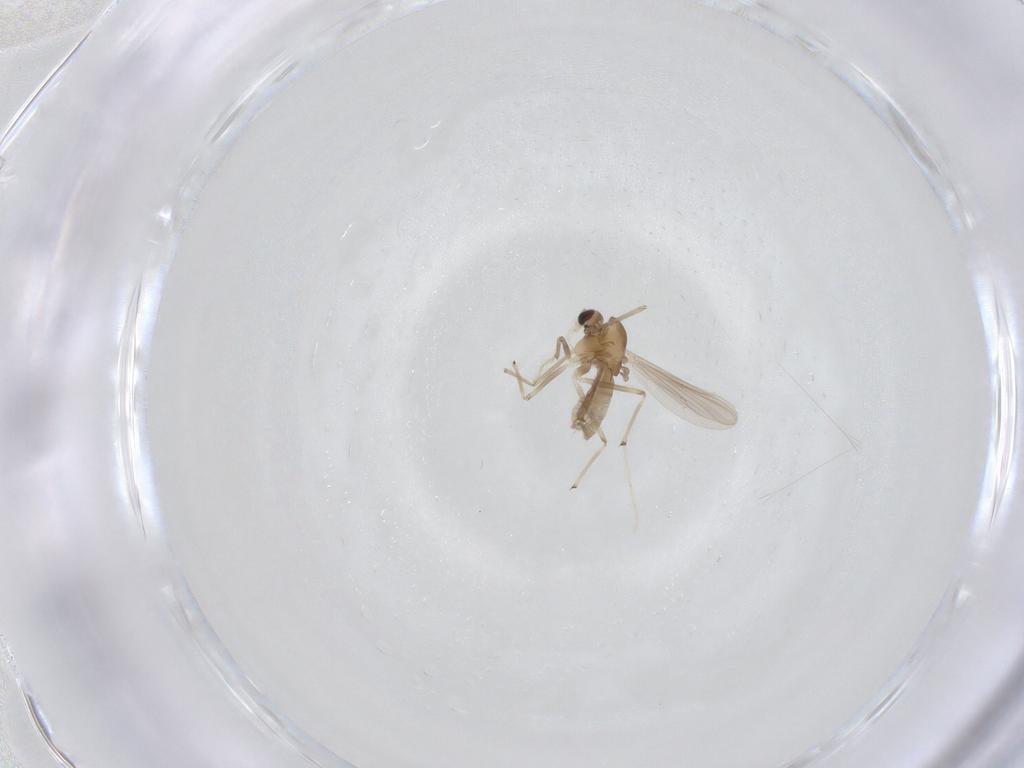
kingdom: Animalia
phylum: Arthropoda
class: Insecta
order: Diptera
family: Chironomidae
